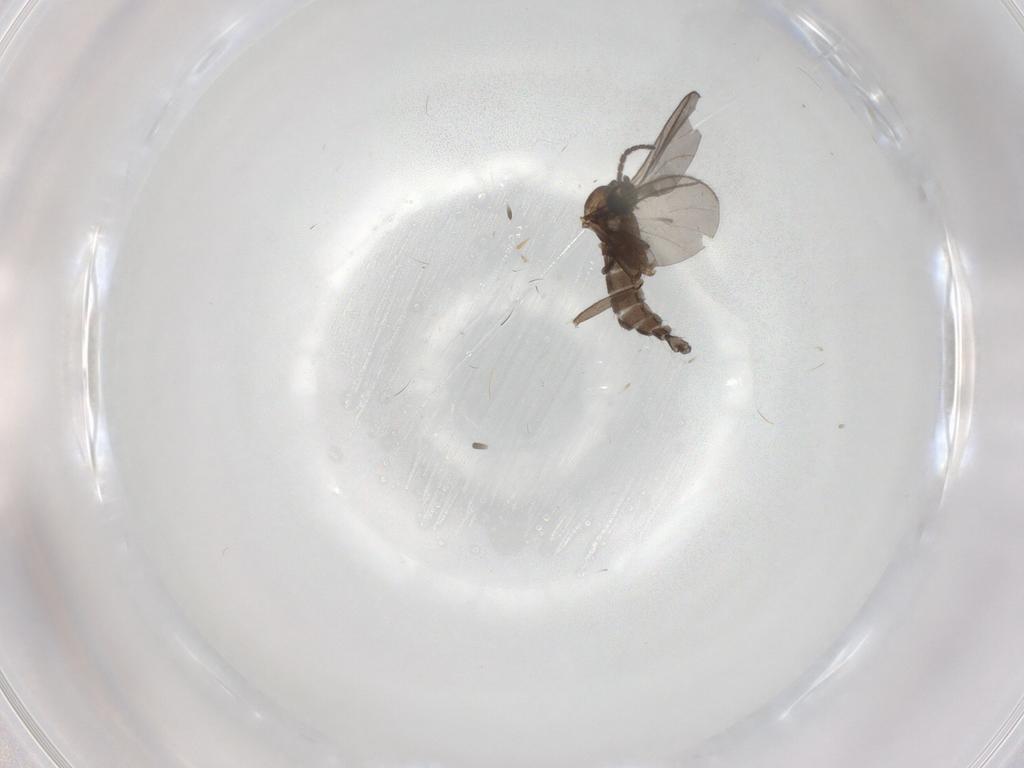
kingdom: Animalia
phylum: Arthropoda
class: Insecta
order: Diptera
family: Sciaridae
